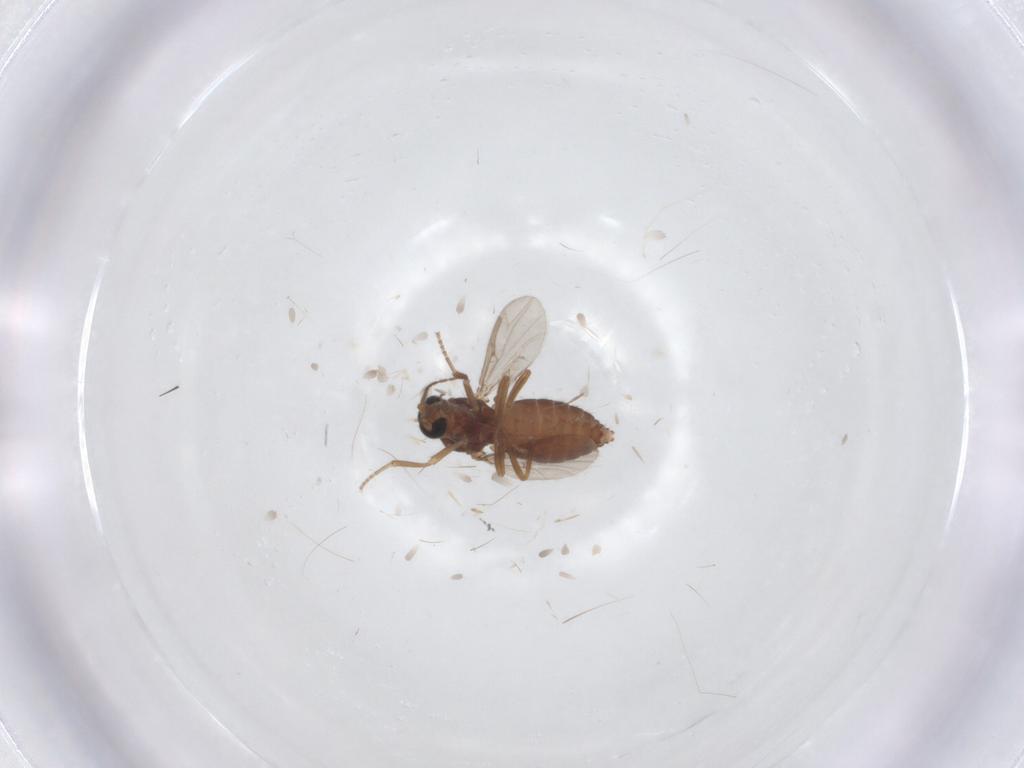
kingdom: Animalia
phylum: Arthropoda
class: Insecta
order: Diptera
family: Ceratopogonidae
